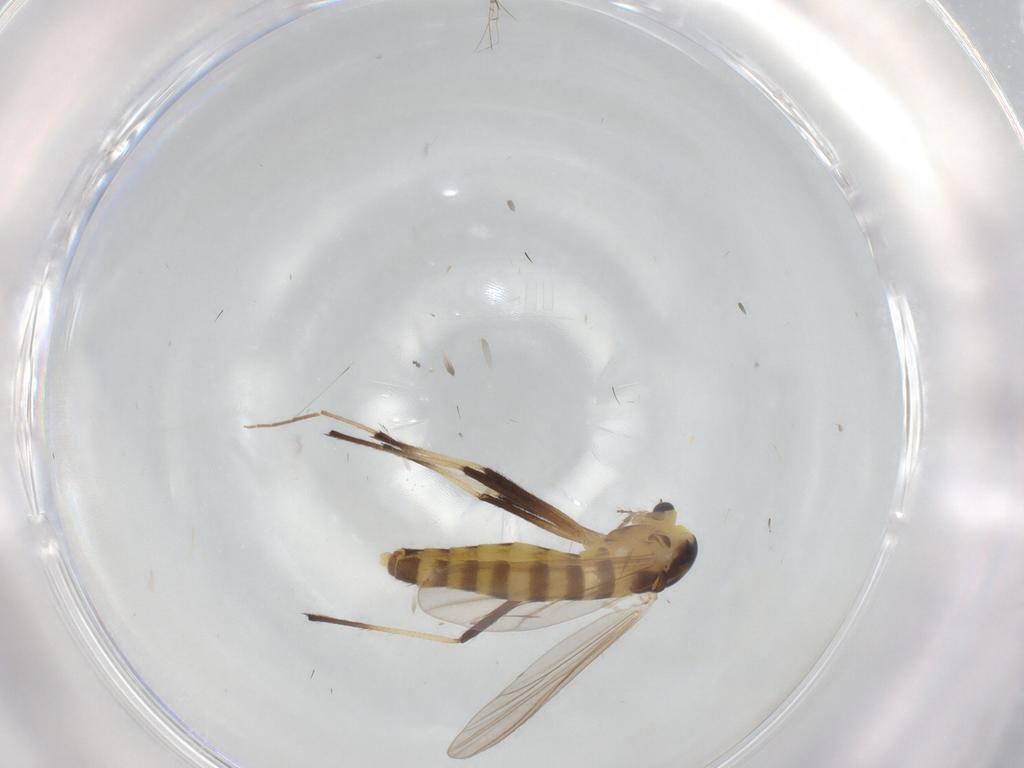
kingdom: Animalia
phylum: Arthropoda
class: Insecta
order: Diptera
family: Chironomidae
